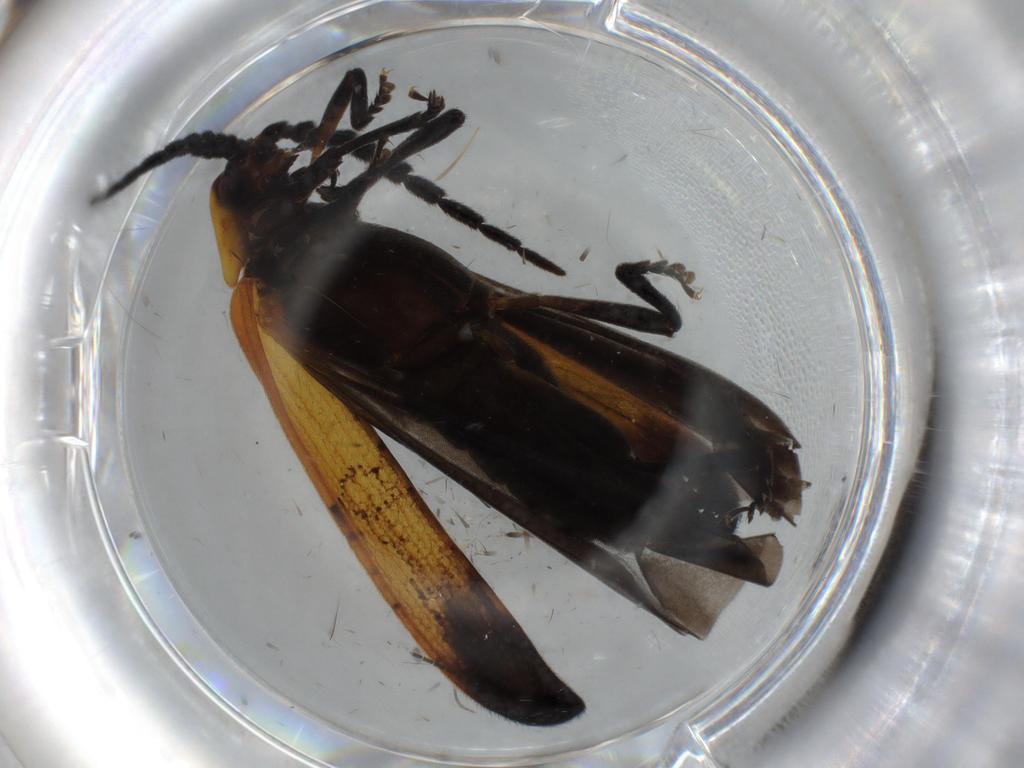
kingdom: Animalia
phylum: Arthropoda
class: Insecta
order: Coleoptera
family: Lycidae
